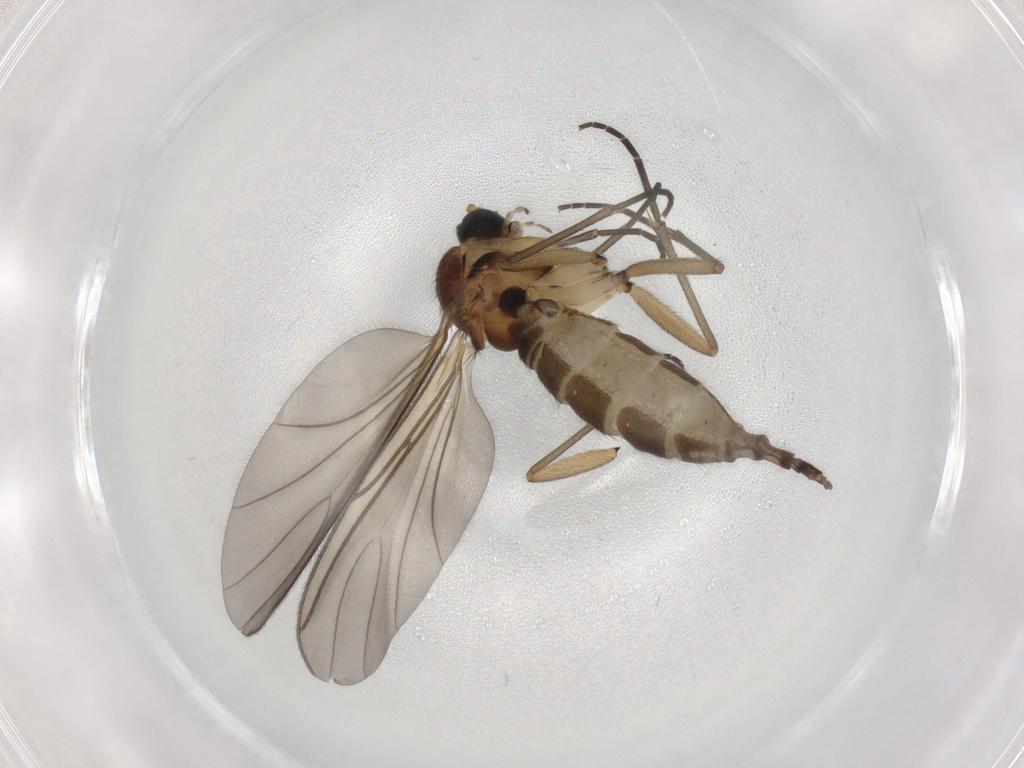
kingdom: Animalia
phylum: Arthropoda
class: Insecta
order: Diptera
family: Sciaridae
